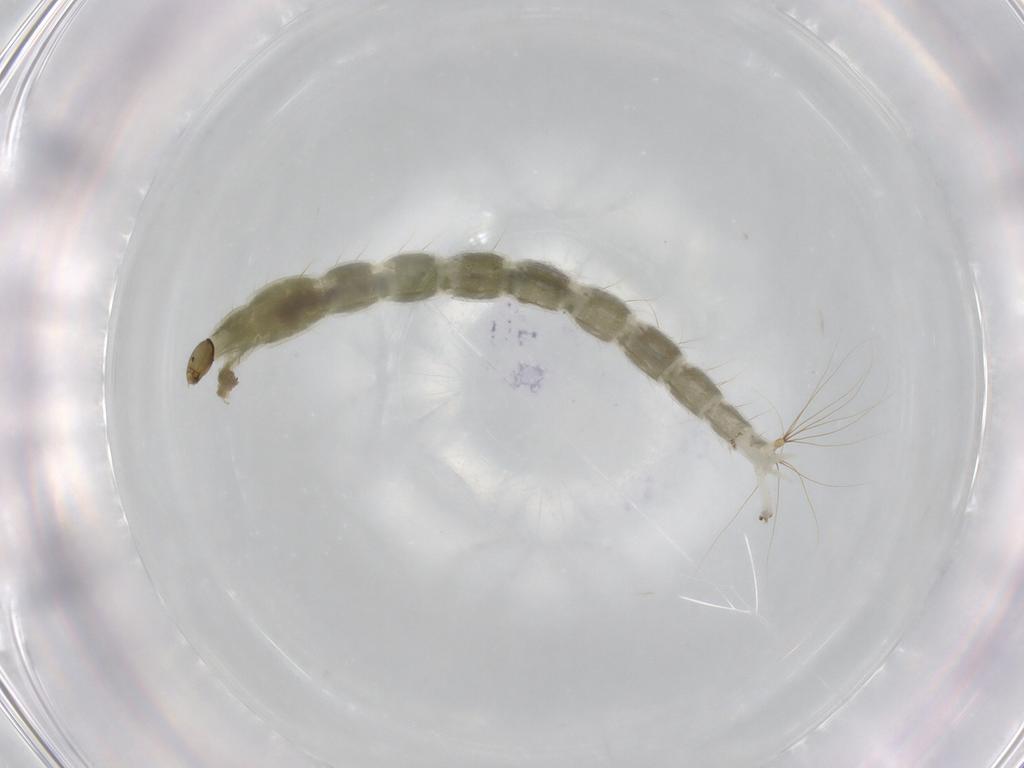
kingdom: Animalia
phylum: Arthropoda
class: Insecta
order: Diptera
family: Chironomidae
